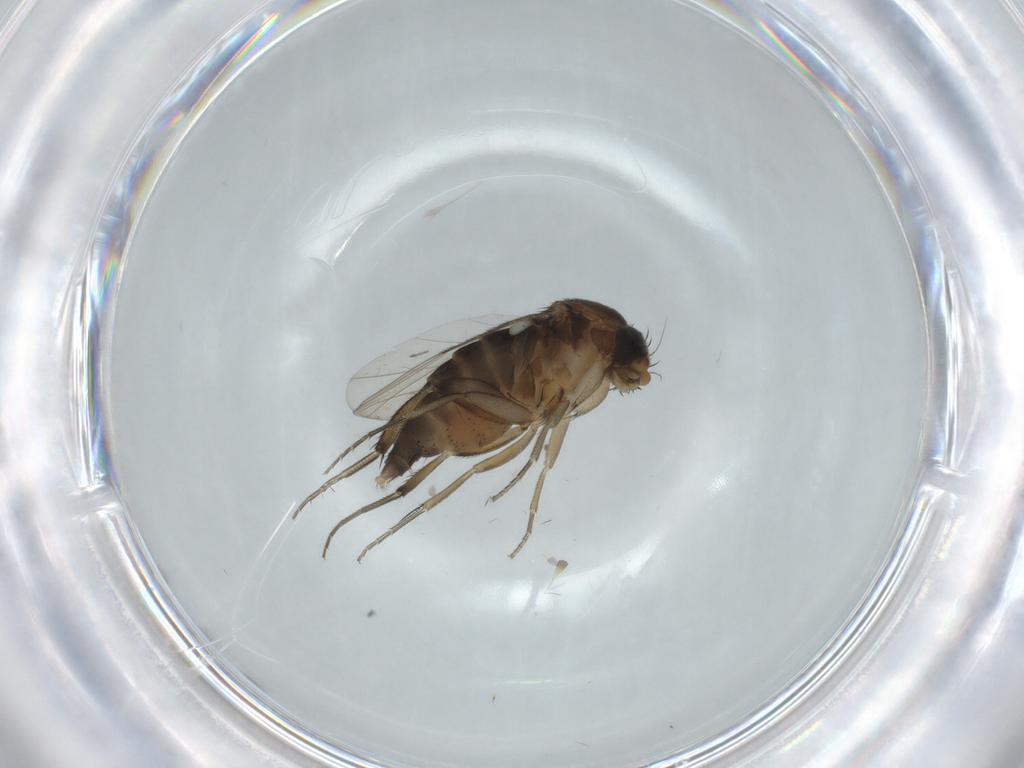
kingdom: Animalia
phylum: Arthropoda
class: Insecta
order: Diptera
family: Phoridae
